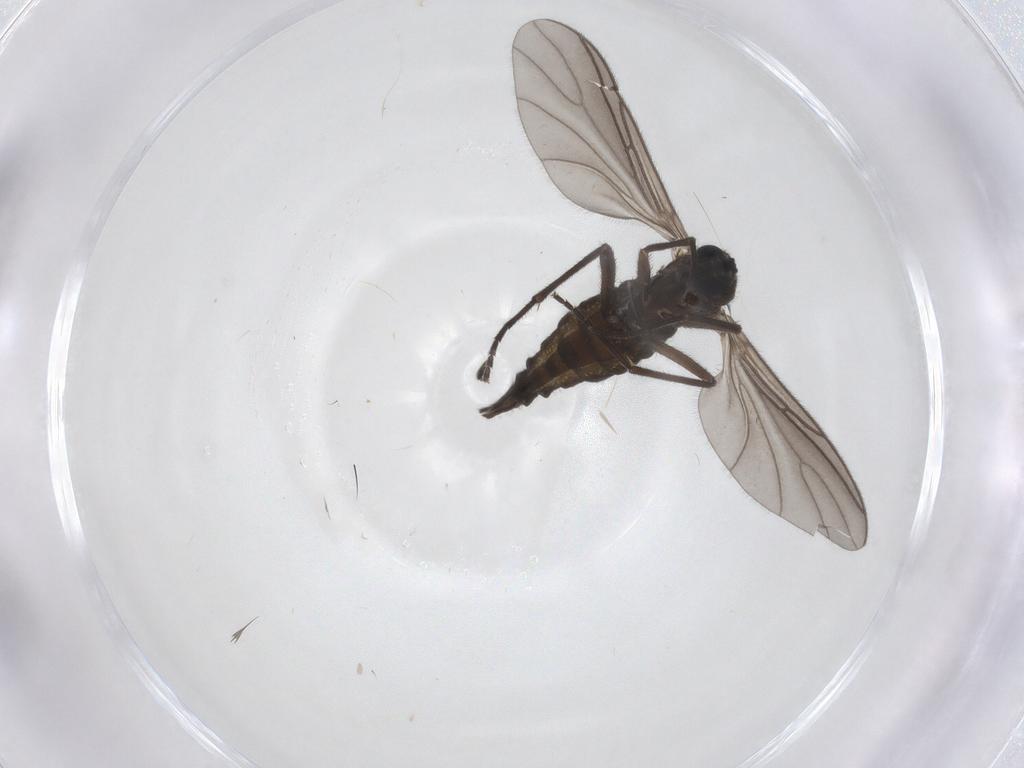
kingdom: Animalia
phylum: Arthropoda
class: Insecta
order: Diptera
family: Sciaridae
